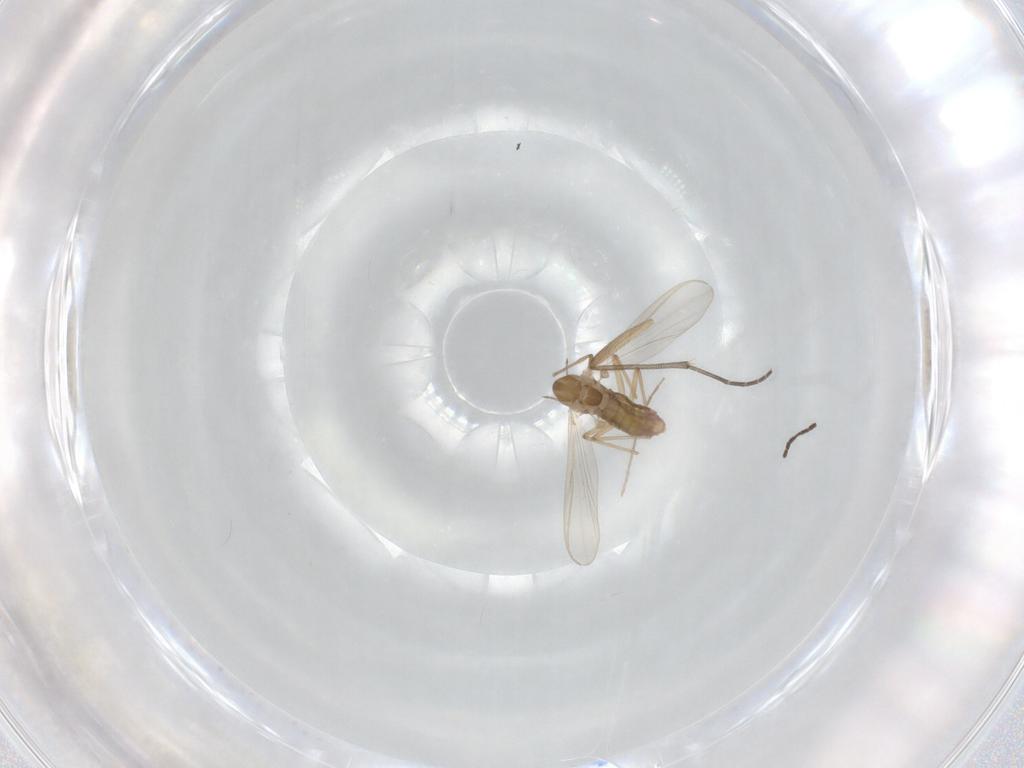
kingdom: Animalia
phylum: Arthropoda
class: Insecta
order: Diptera
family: Chironomidae
